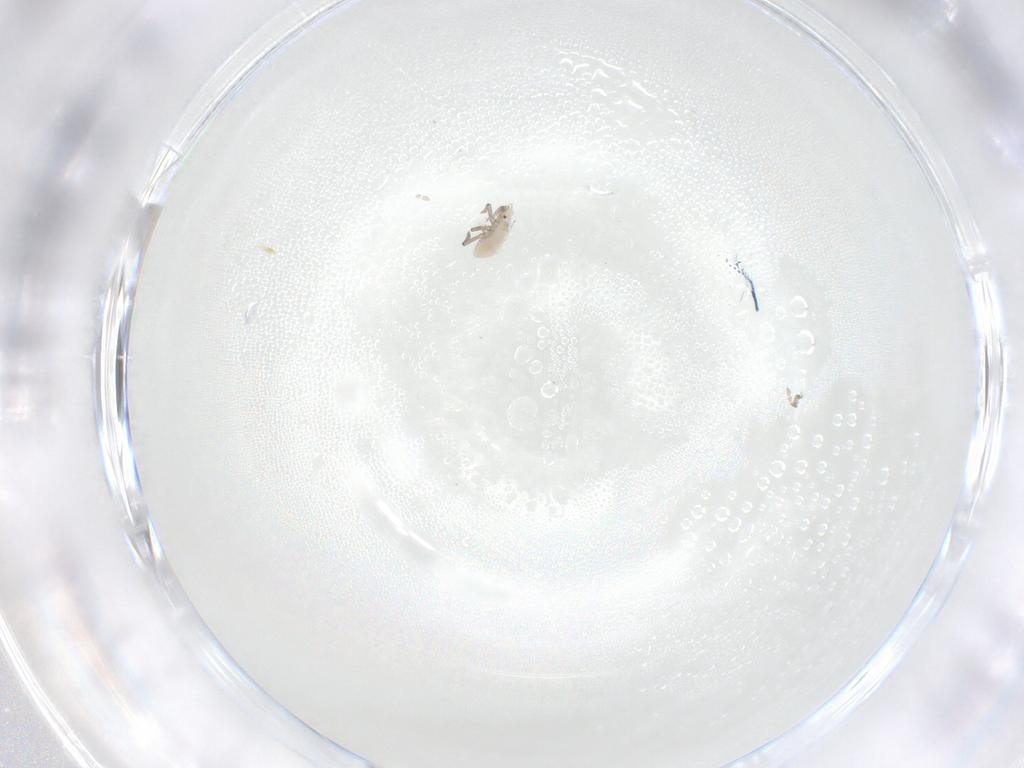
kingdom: Animalia
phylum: Arthropoda
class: Insecta
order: Hemiptera
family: Aphididae
